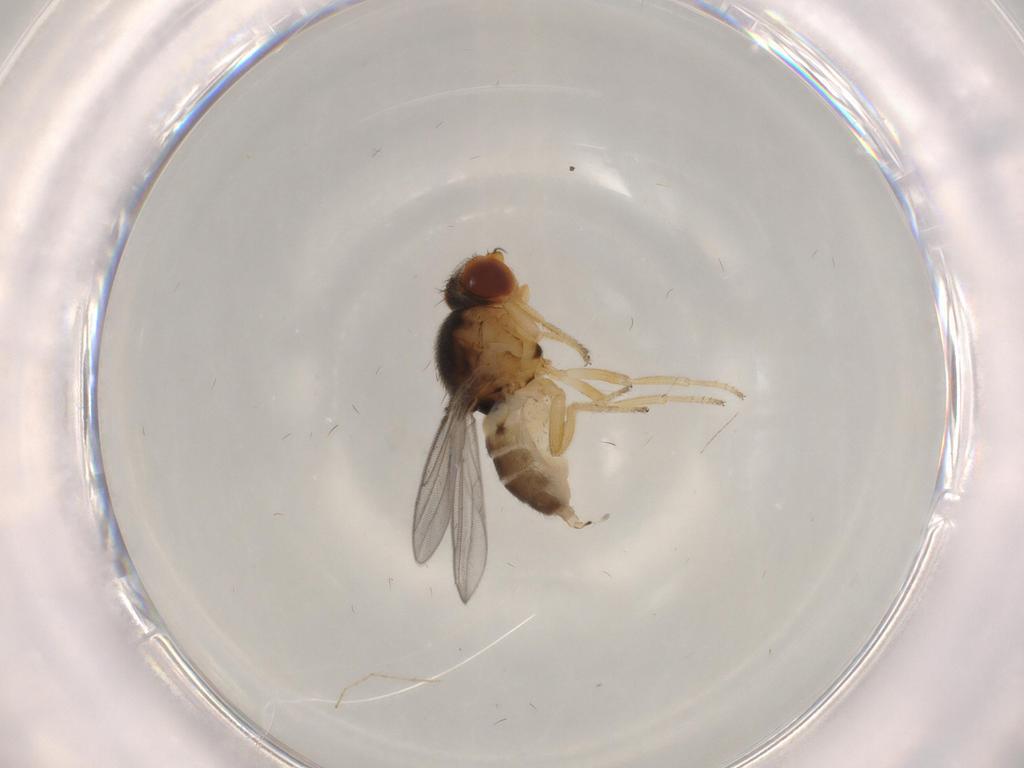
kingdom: Animalia
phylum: Arthropoda
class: Insecta
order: Diptera
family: Chloropidae
